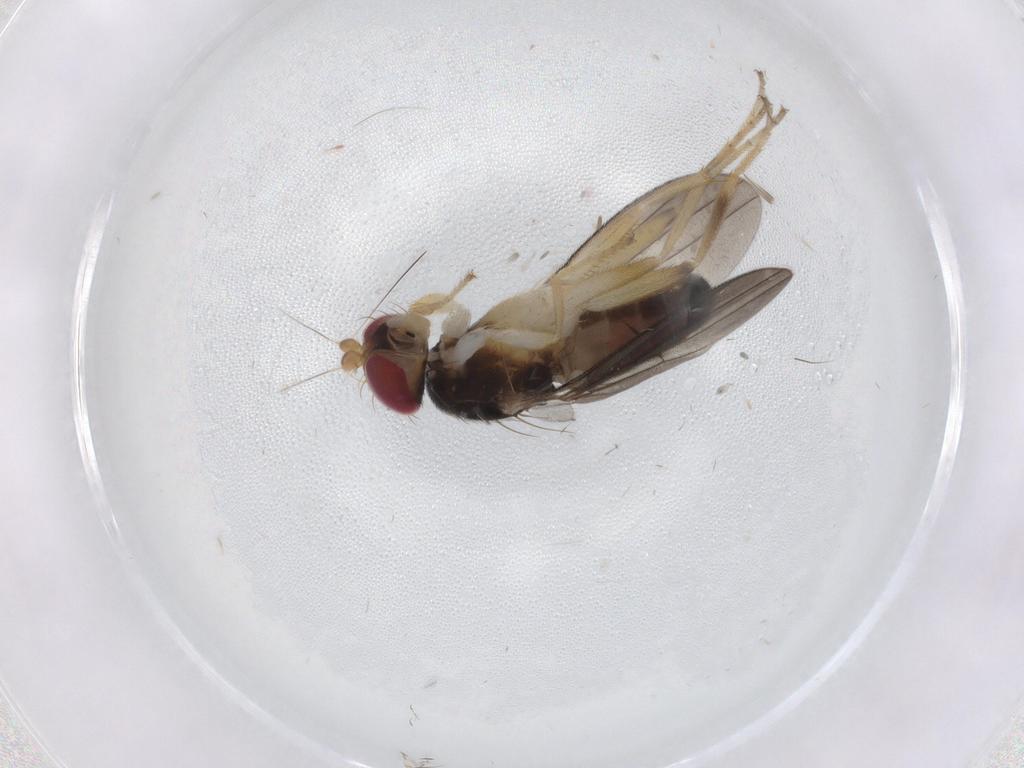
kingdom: Animalia
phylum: Arthropoda
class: Insecta
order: Diptera
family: Clusiidae
